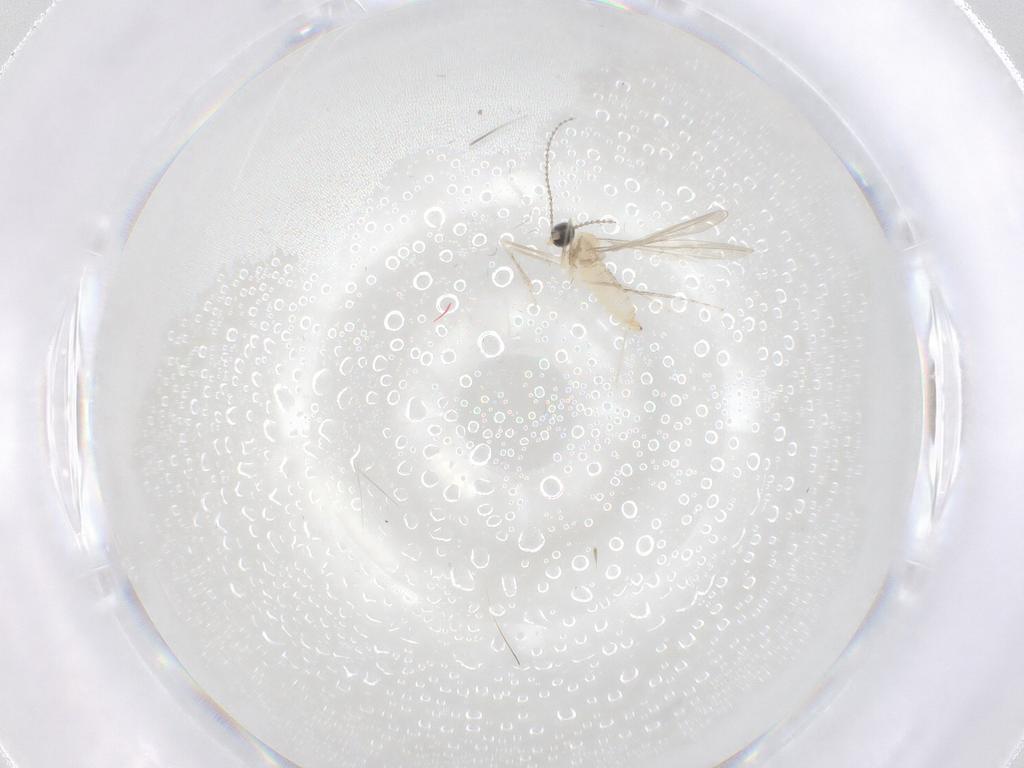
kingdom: Animalia
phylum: Arthropoda
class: Insecta
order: Diptera
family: Cecidomyiidae
